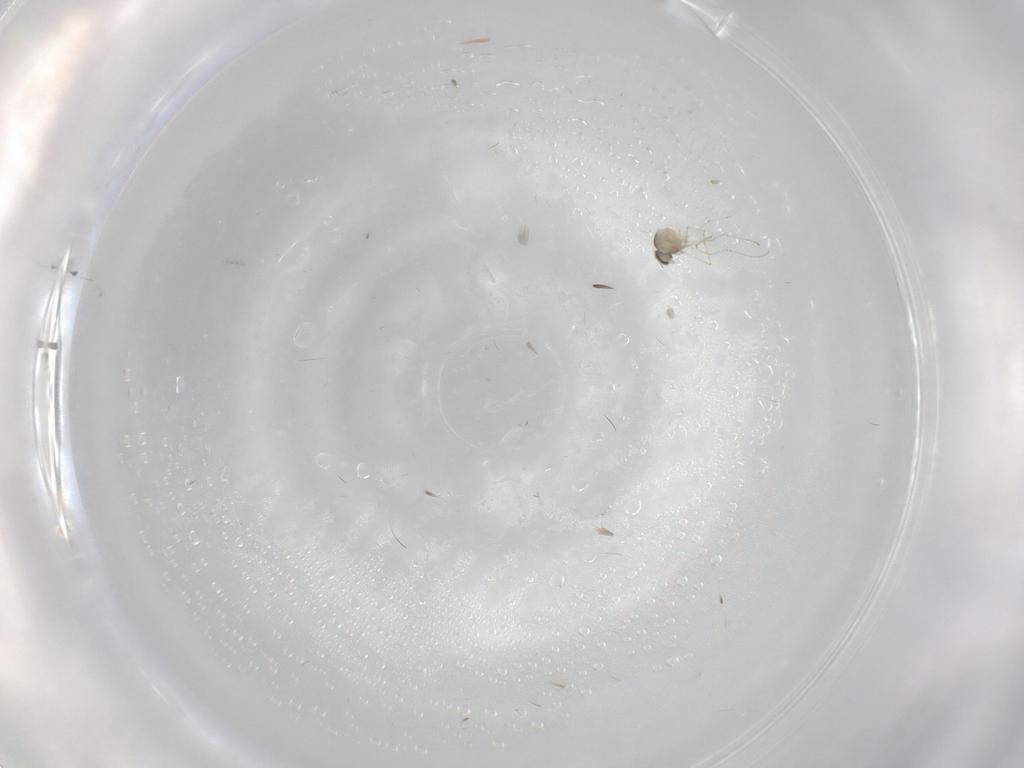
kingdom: Animalia
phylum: Arthropoda
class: Insecta
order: Diptera
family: Cecidomyiidae
